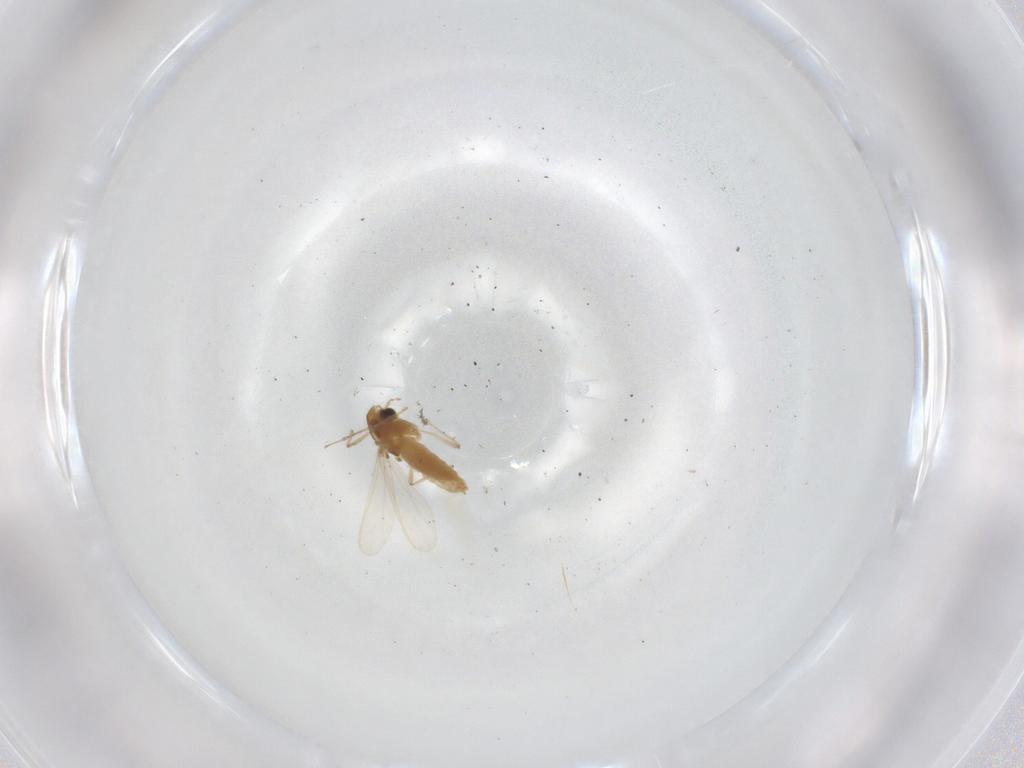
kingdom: Animalia
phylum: Arthropoda
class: Insecta
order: Diptera
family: Chironomidae
